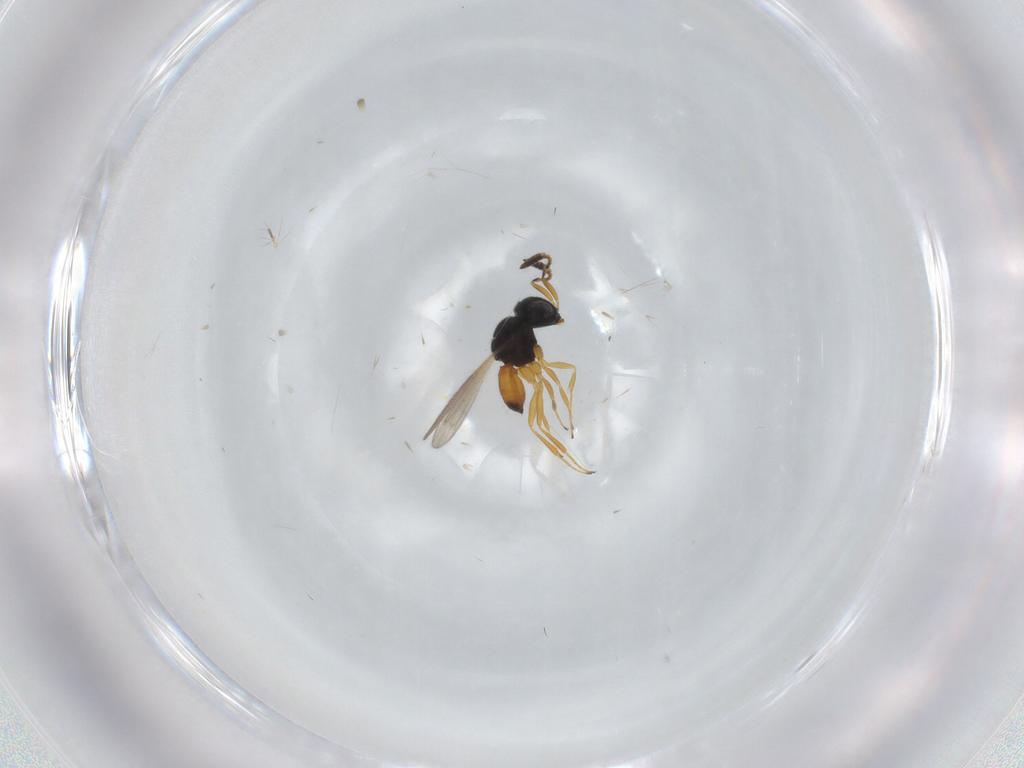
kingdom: Animalia
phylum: Arthropoda
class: Insecta
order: Hymenoptera
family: Scelionidae
